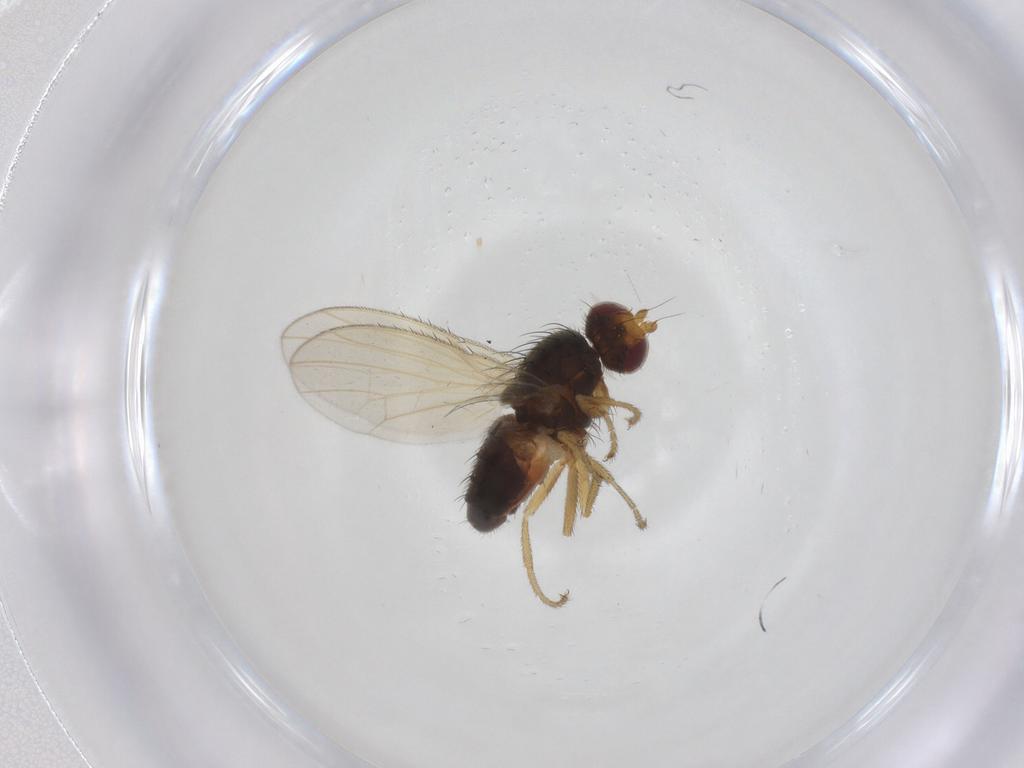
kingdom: Animalia
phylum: Arthropoda
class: Insecta
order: Diptera
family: Heleomyzidae
